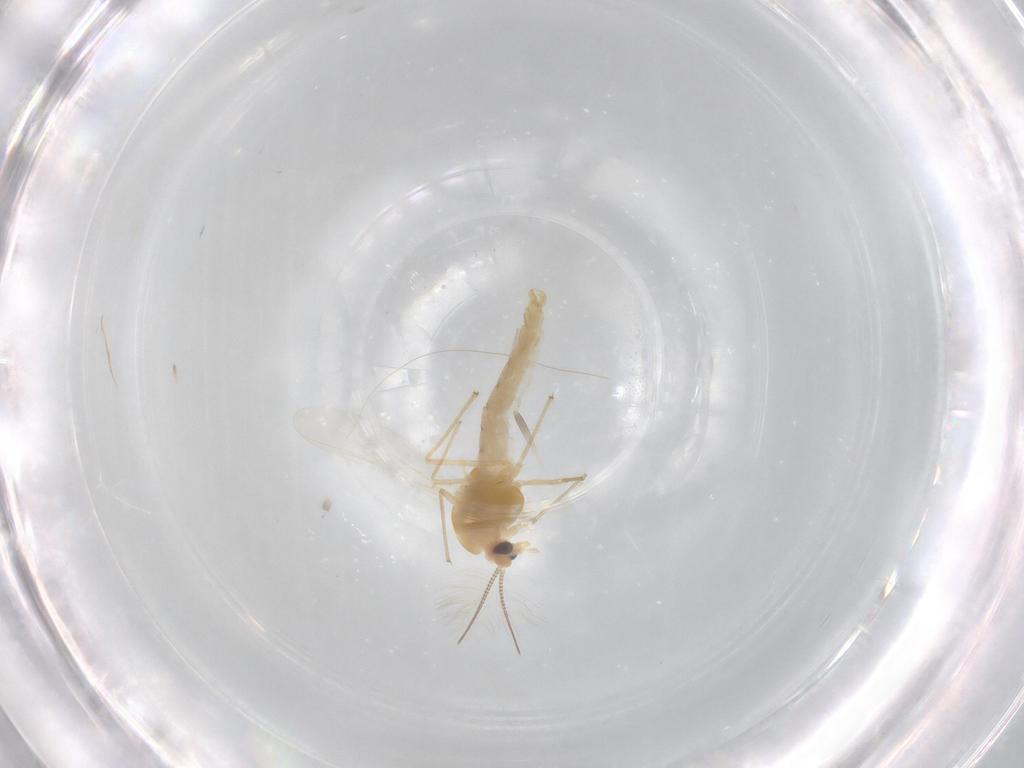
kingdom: Animalia
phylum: Arthropoda
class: Insecta
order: Diptera
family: Chironomidae
